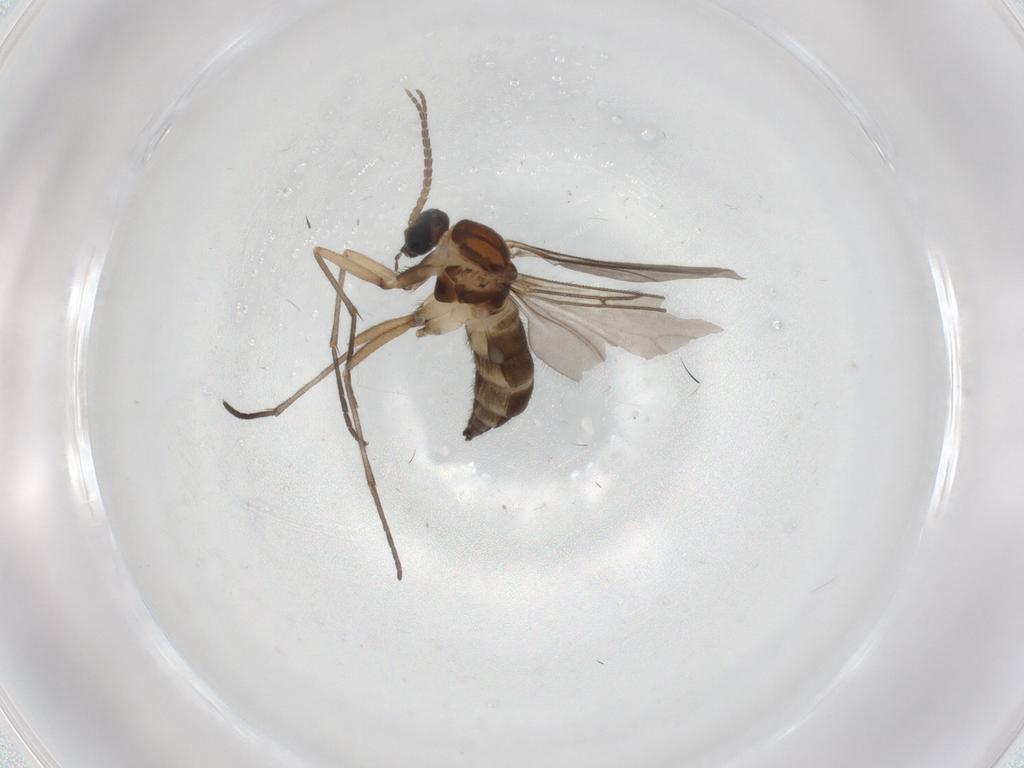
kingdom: Animalia
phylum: Arthropoda
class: Insecta
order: Diptera
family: Sciaridae
